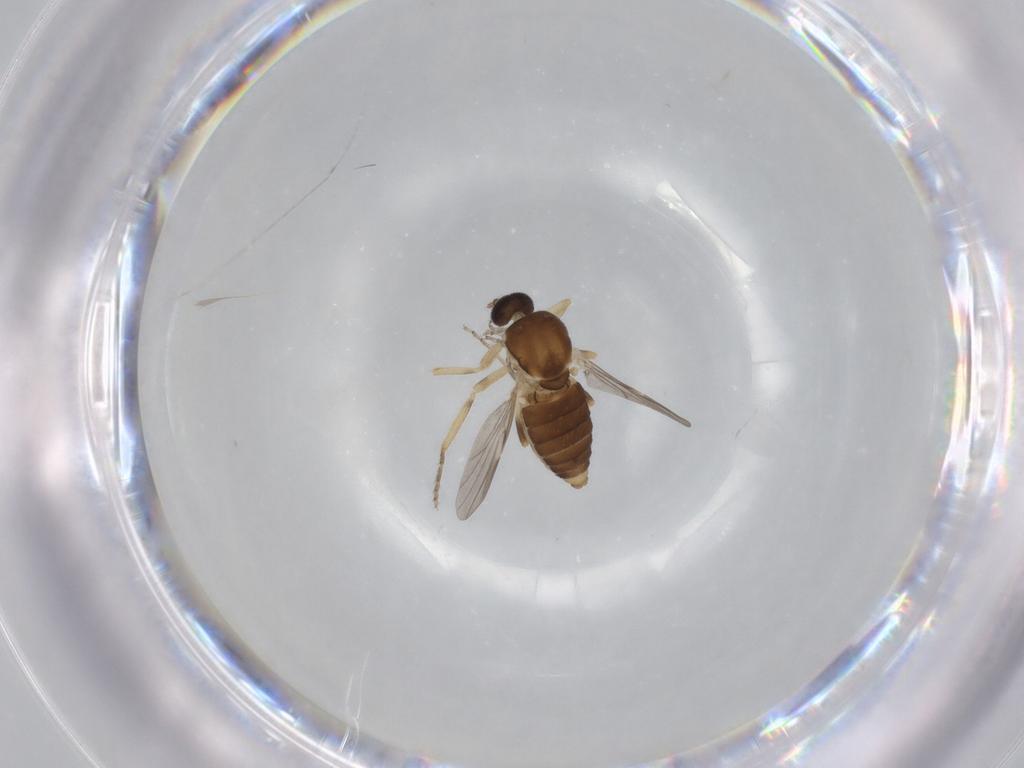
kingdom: Animalia
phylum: Arthropoda
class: Insecta
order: Diptera
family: Ceratopogonidae
